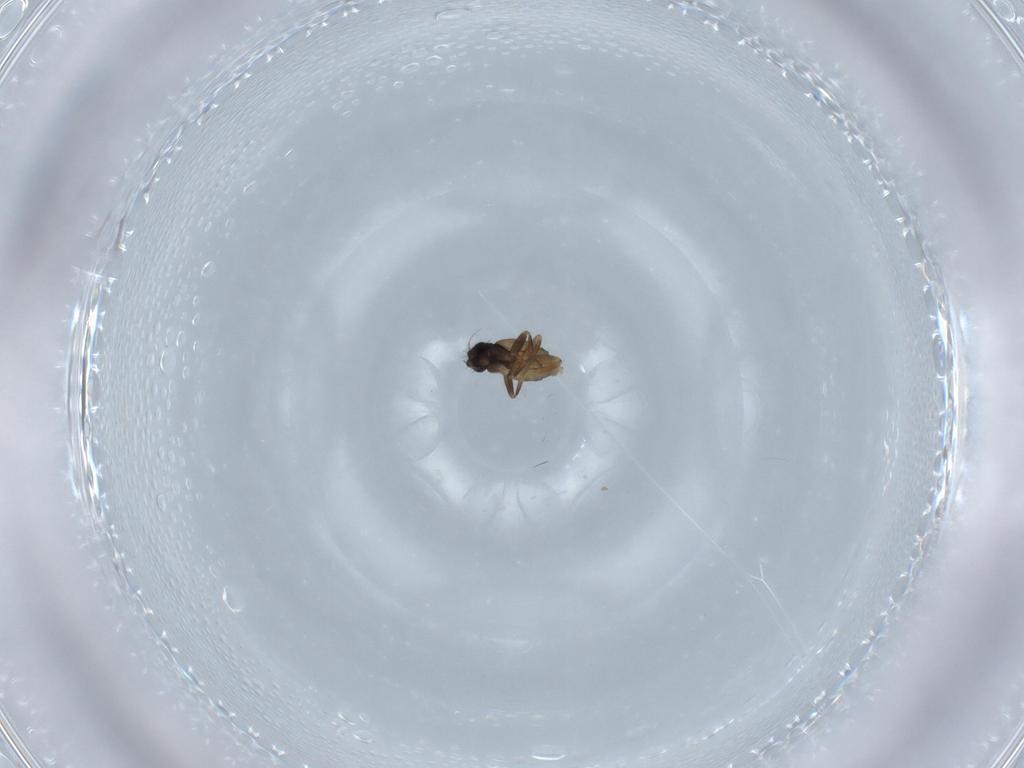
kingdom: Animalia
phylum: Arthropoda
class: Insecta
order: Diptera
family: Phoridae
